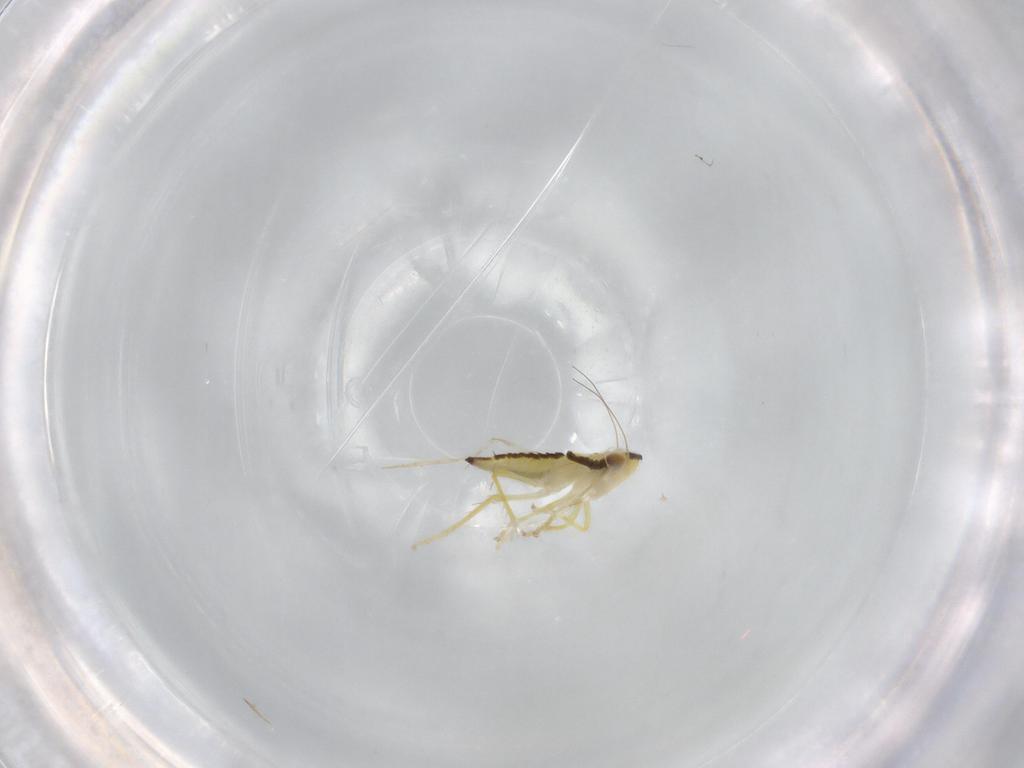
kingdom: Animalia
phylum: Arthropoda
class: Insecta
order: Hemiptera
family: Cicadellidae
